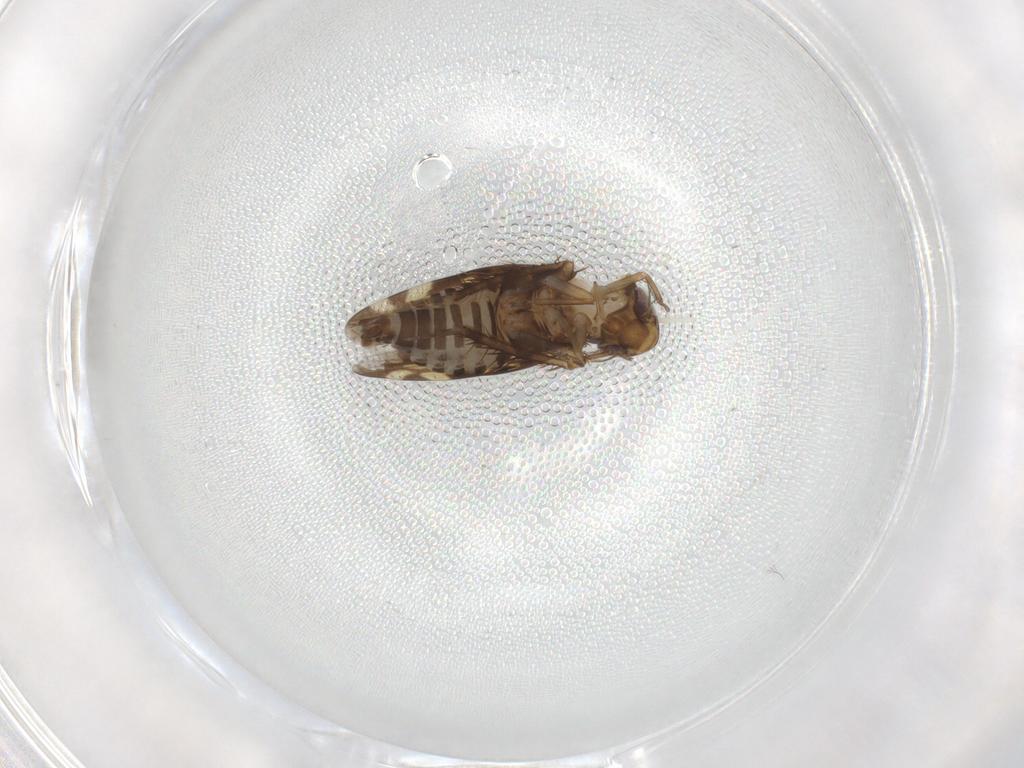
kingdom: Animalia
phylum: Arthropoda
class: Insecta
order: Hemiptera
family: Cicadellidae
